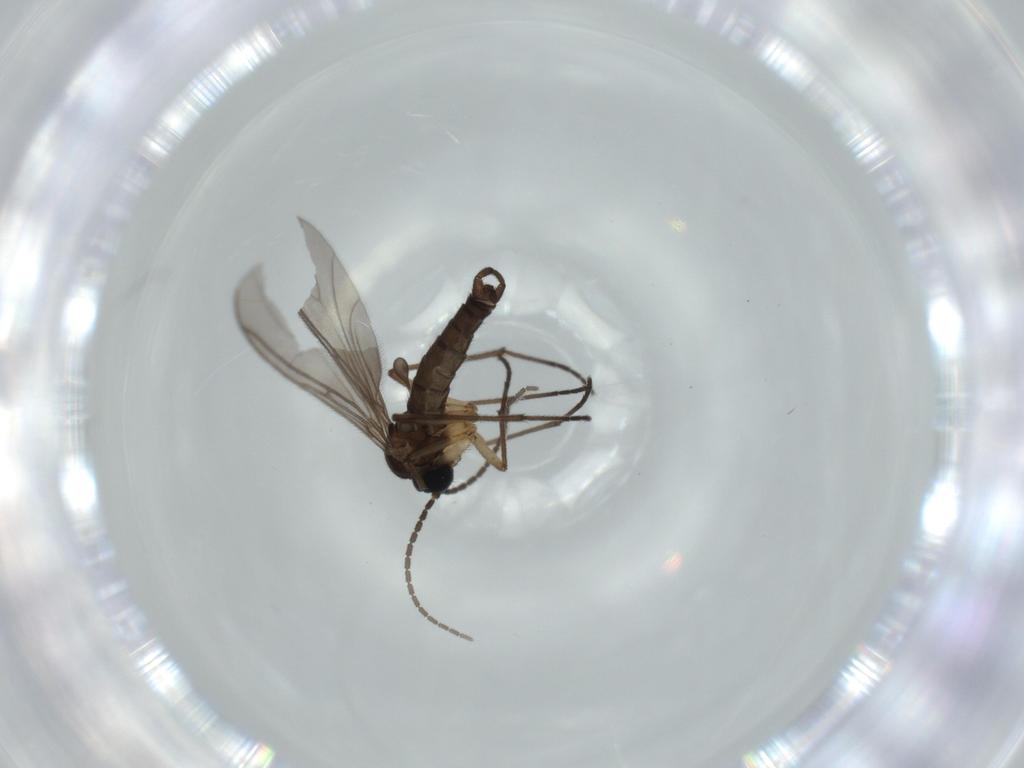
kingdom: Animalia
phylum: Arthropoda
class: Insecta
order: Diptera
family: Sciaridae
